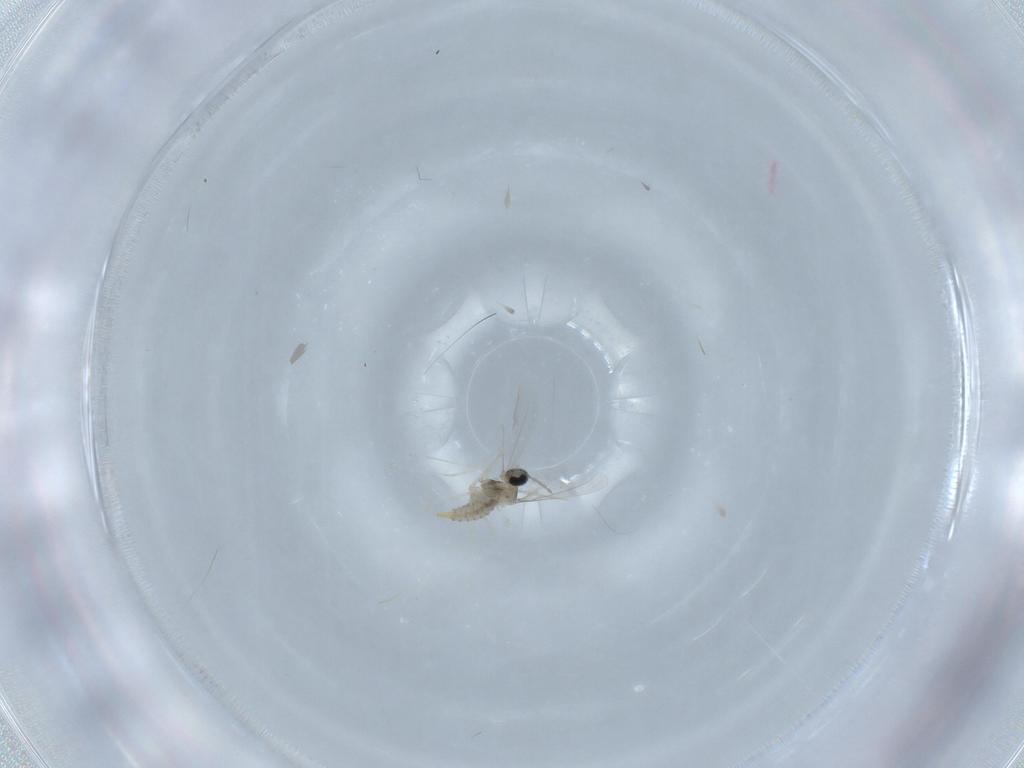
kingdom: Animalia
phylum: Arthropoda
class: Insecta
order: Diptera
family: Cecidomyiidae
